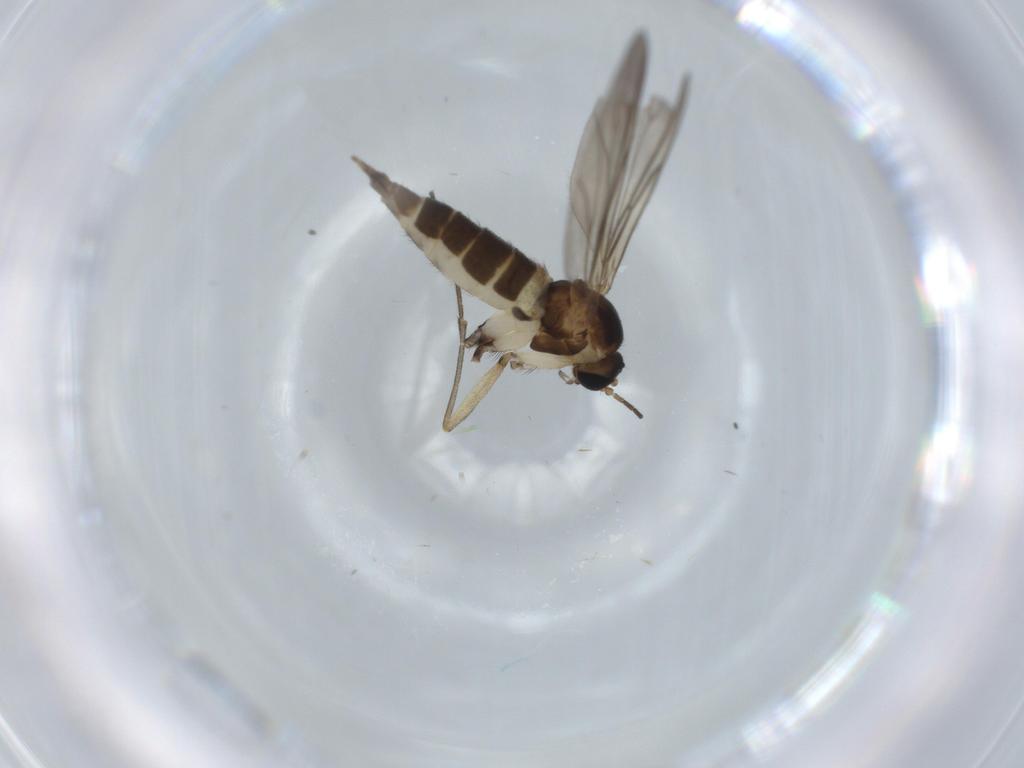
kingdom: Animalia
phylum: Arthropoda
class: Insecta
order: Diptera
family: Sciaridae
